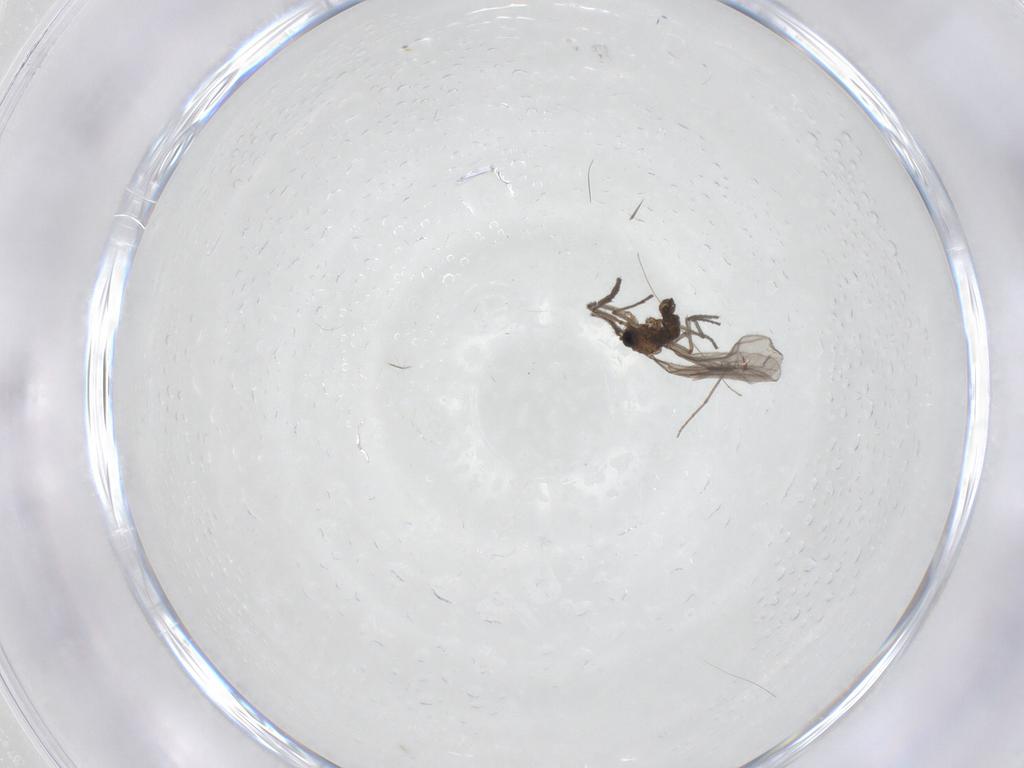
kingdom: Animalia
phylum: Arthropoda
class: Insecta
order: Diptera
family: Sciaridae
